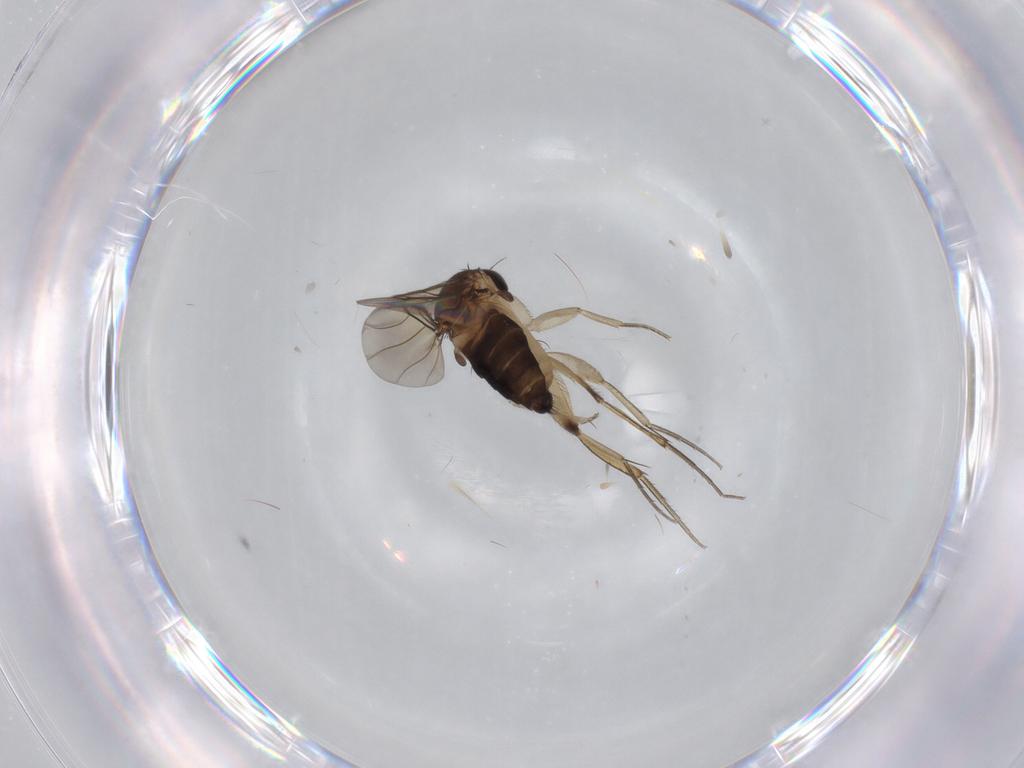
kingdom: Animalia
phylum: Arthropoda
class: Insecta
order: Diptera
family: Phoridae
